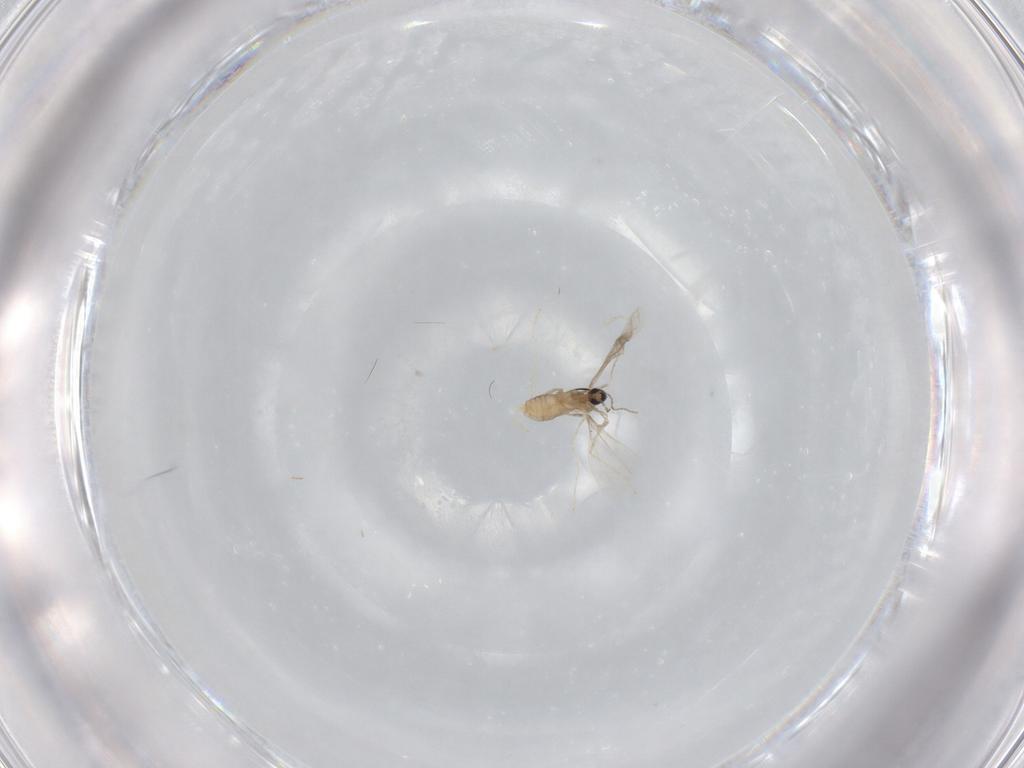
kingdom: Animalia
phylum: Arthropoda
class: Insecta
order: Diptera
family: Cecidomyiidae
